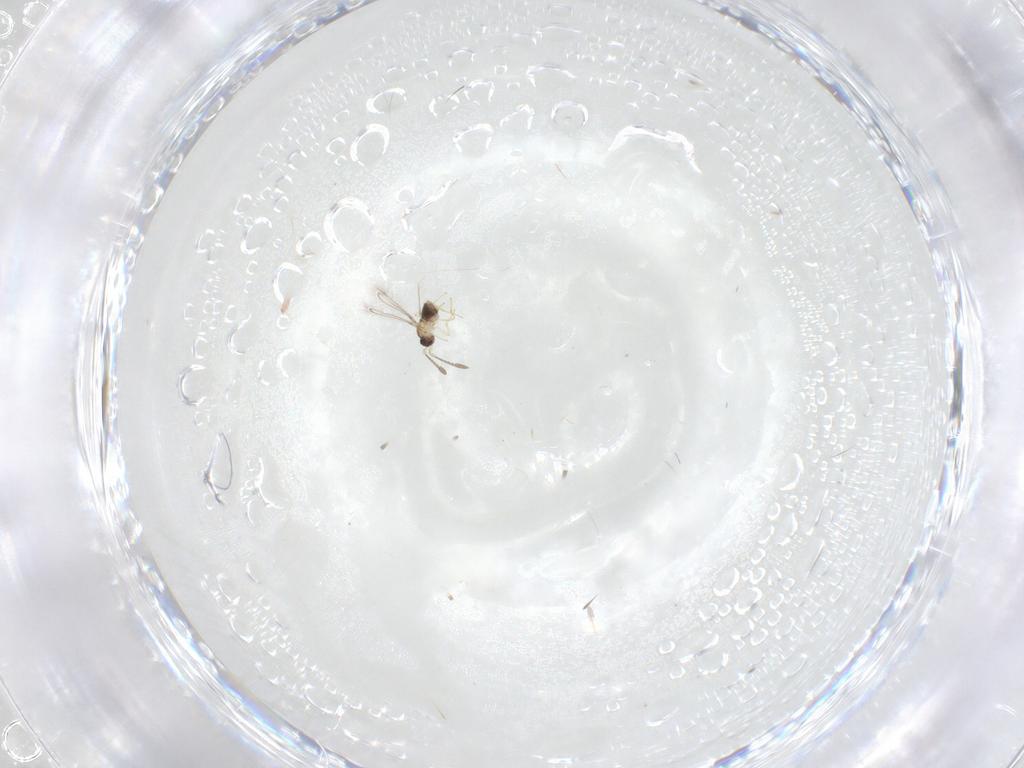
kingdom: Animalia
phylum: Arthropoda
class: Insecta
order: Hymenoptera
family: Mymaridae
